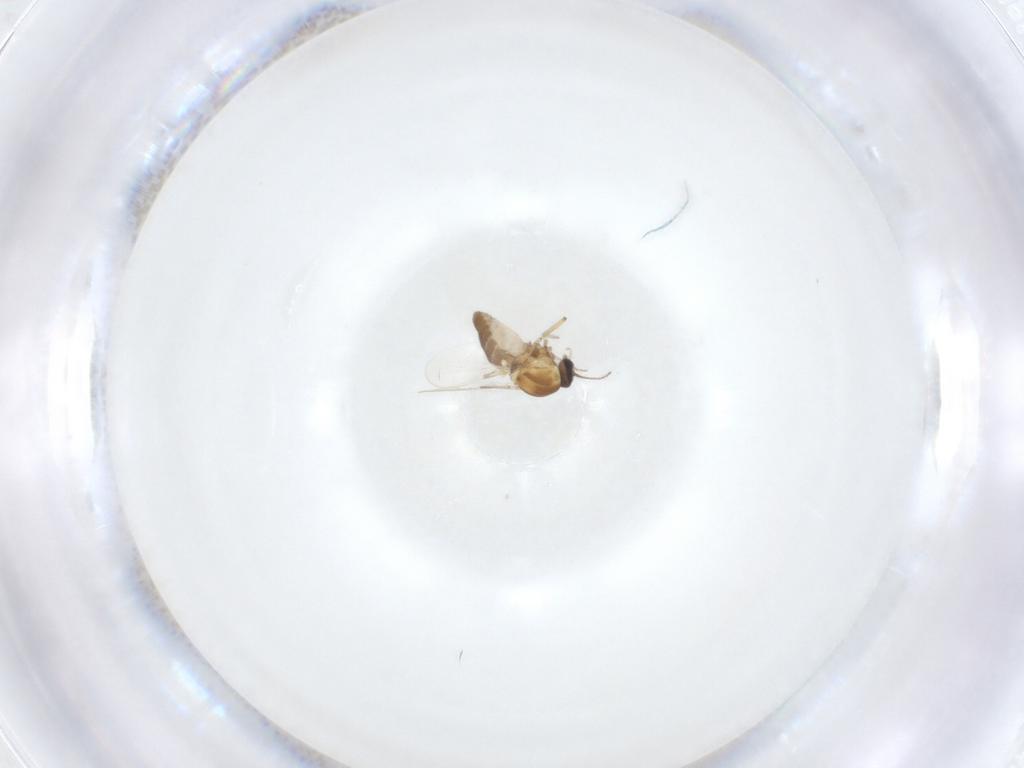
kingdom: Animalia
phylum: Arthropoda
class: Insecta
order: Diptera
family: Ceratopogonidae
